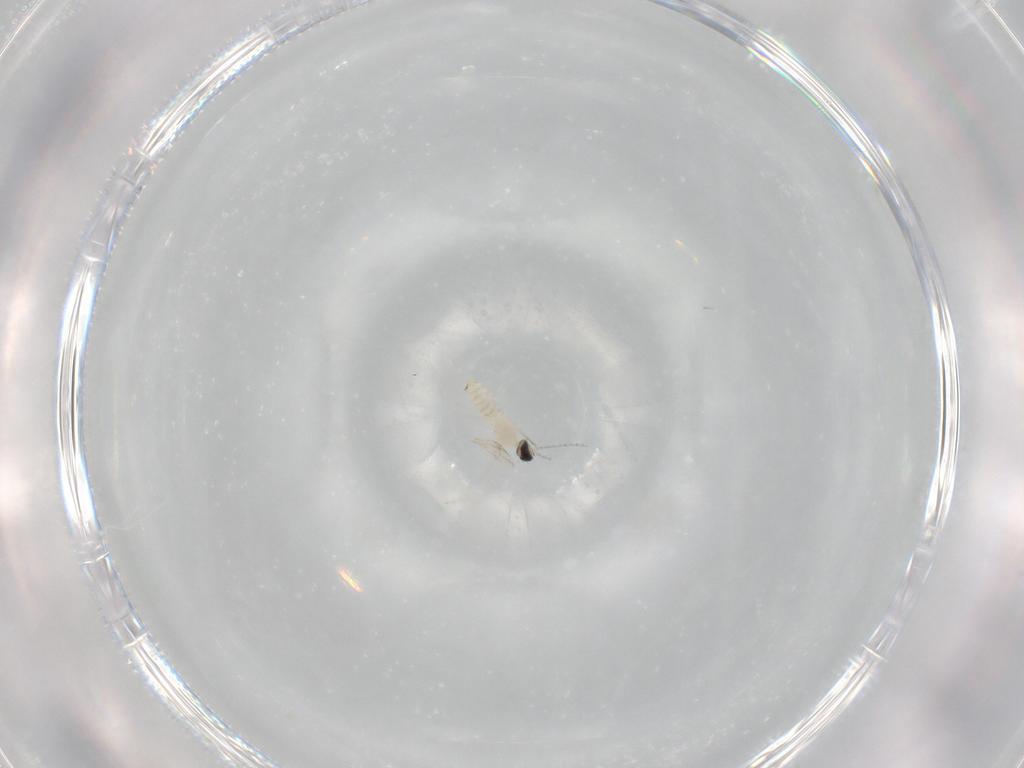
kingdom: Animalia
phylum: Arthropoda
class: Insecta
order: Diptera
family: Cecidomyiidae
